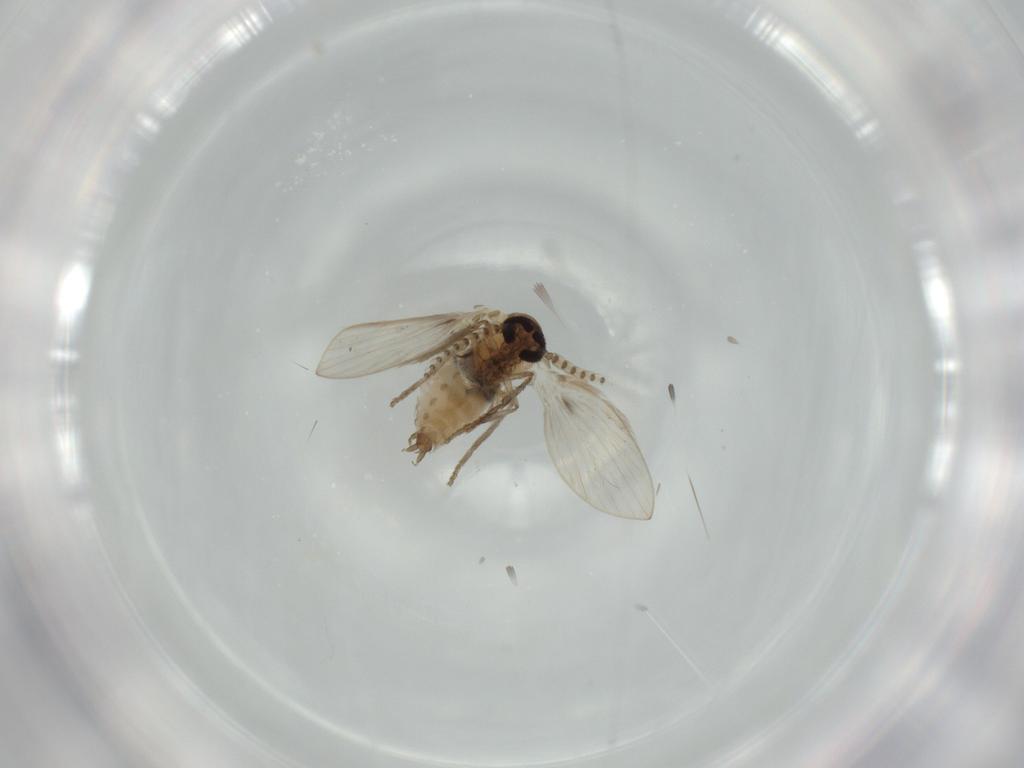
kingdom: Animalia
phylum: Arthropoda
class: Insecta
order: Diptera
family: Psychodidae
